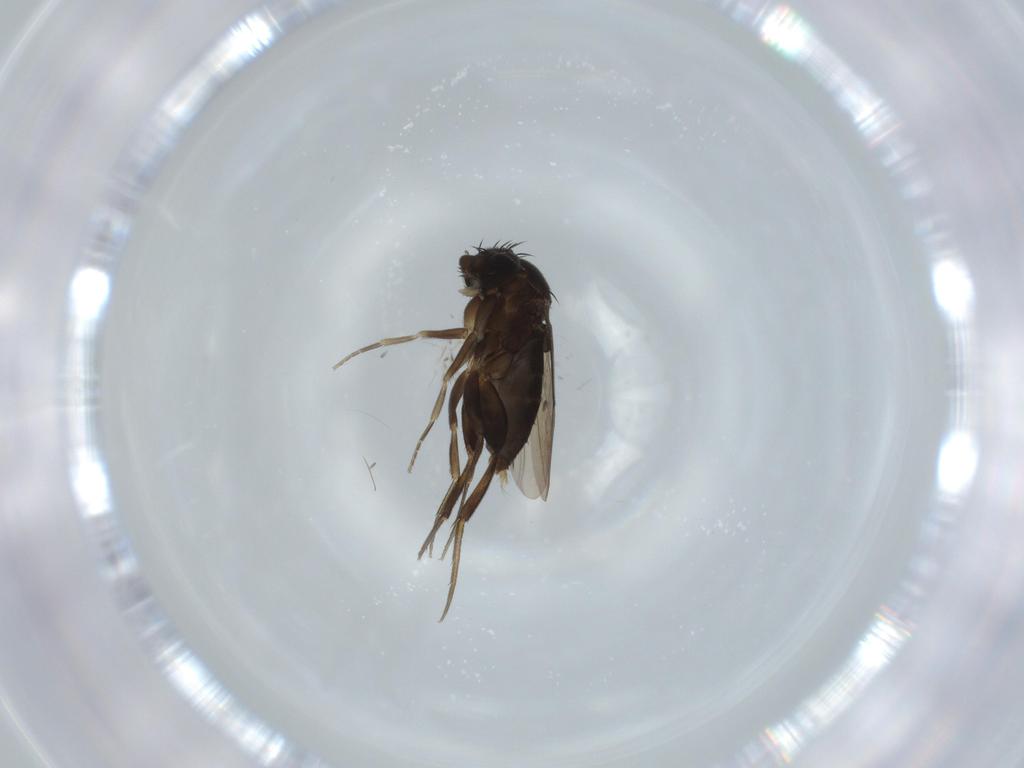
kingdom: Animalia
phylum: Arthropoda
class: Insecta
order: Diptera
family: Phoridae
